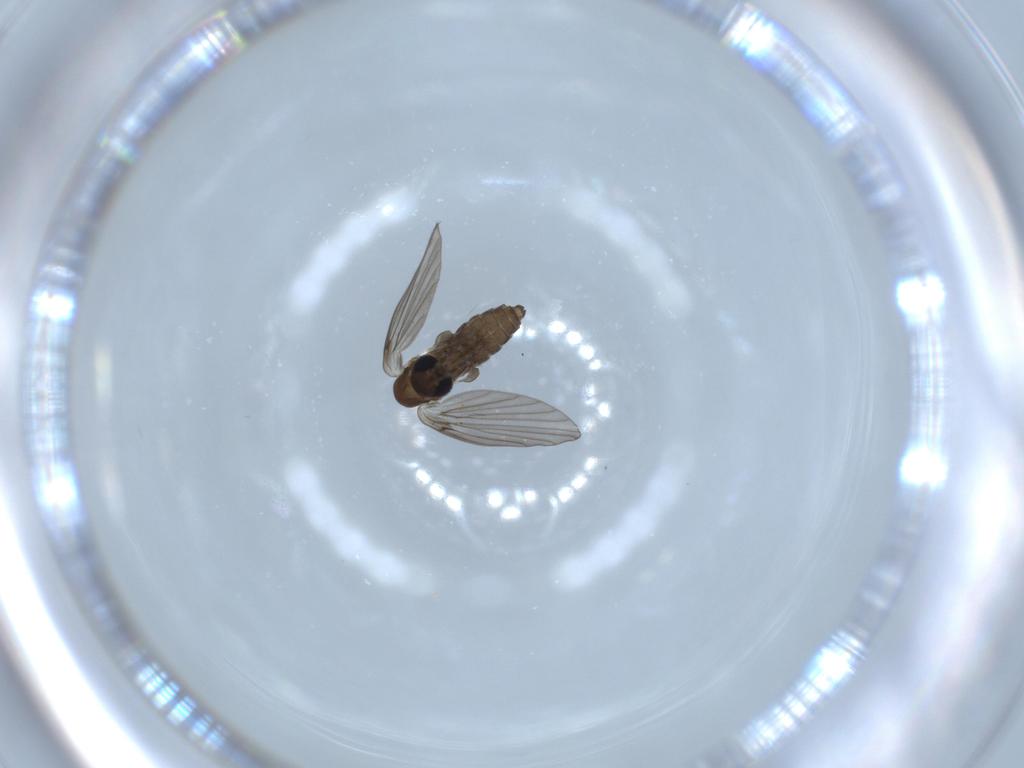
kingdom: Animalia
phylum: Arthropoda
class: Insecta
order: Diptera
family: Psychodidae
